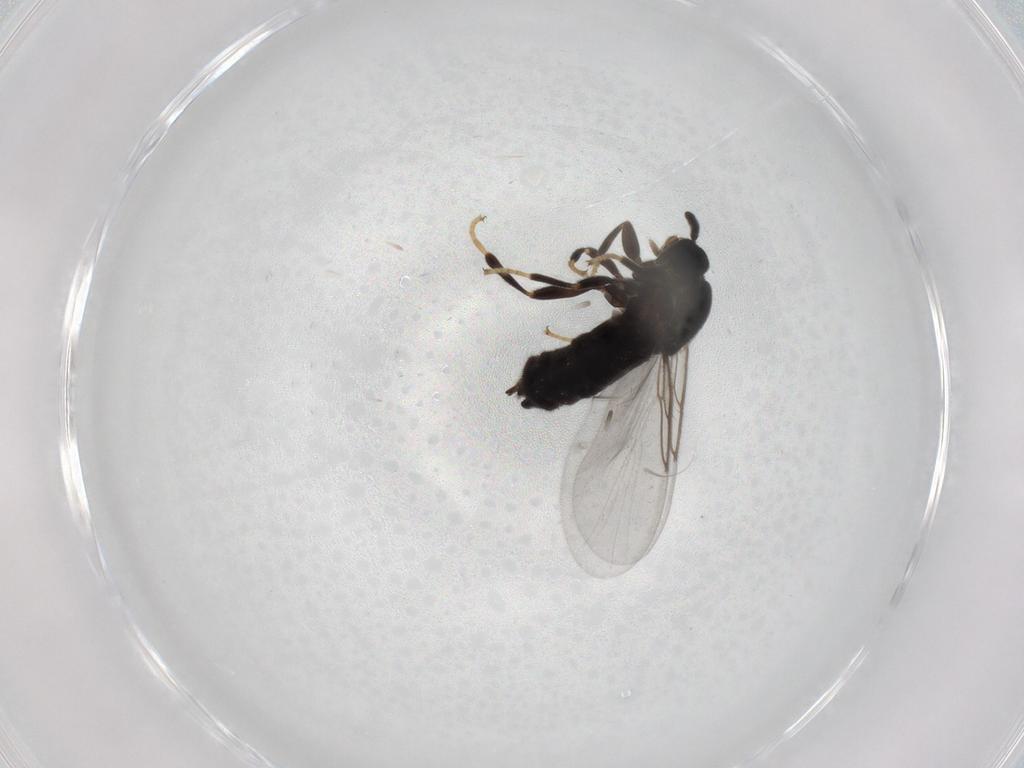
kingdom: Animalia
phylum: Arthropoda
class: Insecta
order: Diptera
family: Scatopsidae
